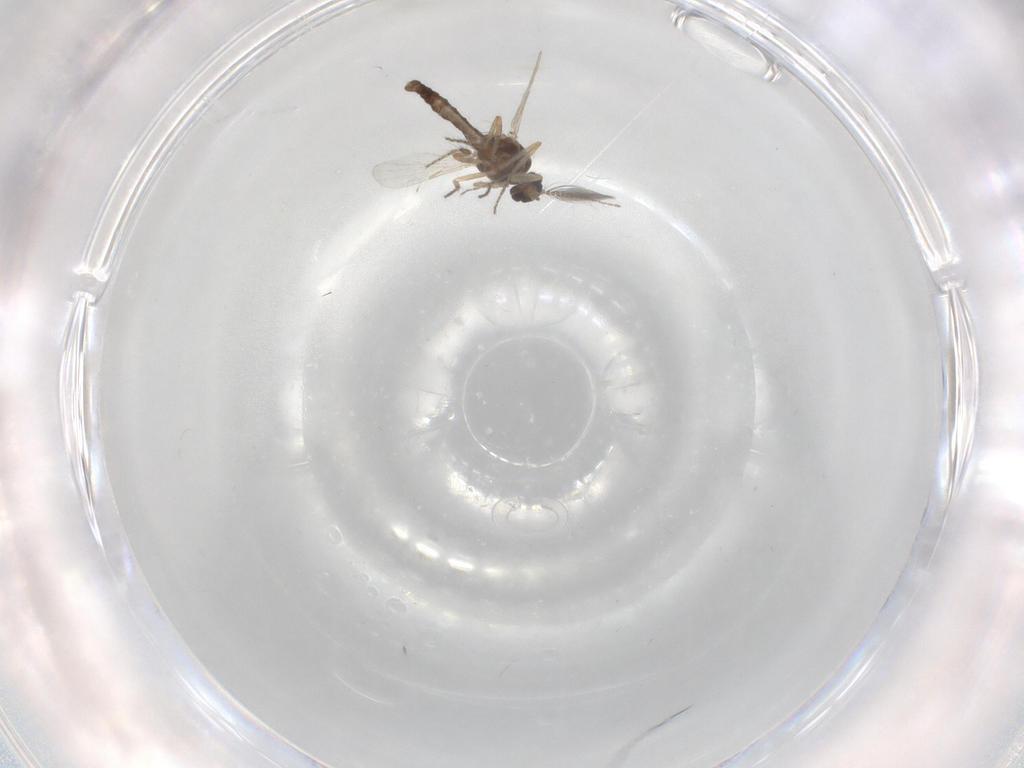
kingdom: Animalia
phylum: Arthropoda
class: Insecta
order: Diptera
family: Ceratopogonidae
